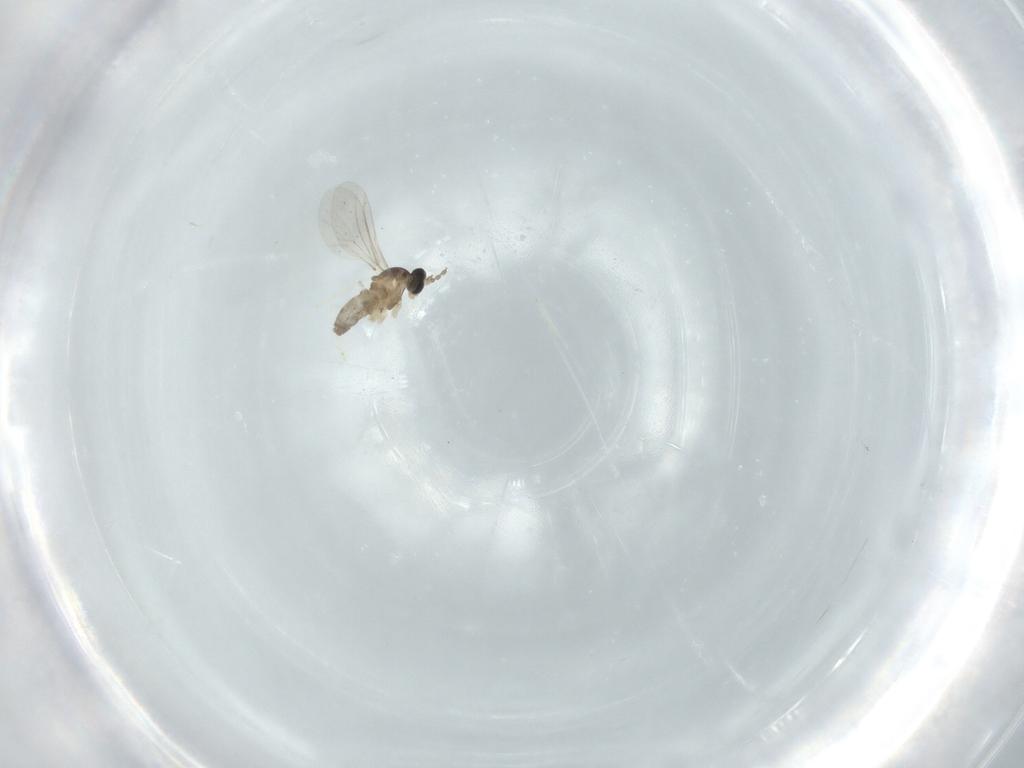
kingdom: Animalia
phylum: Arthropoda
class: Insecta
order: Diptera
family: Cecidomyiidae
